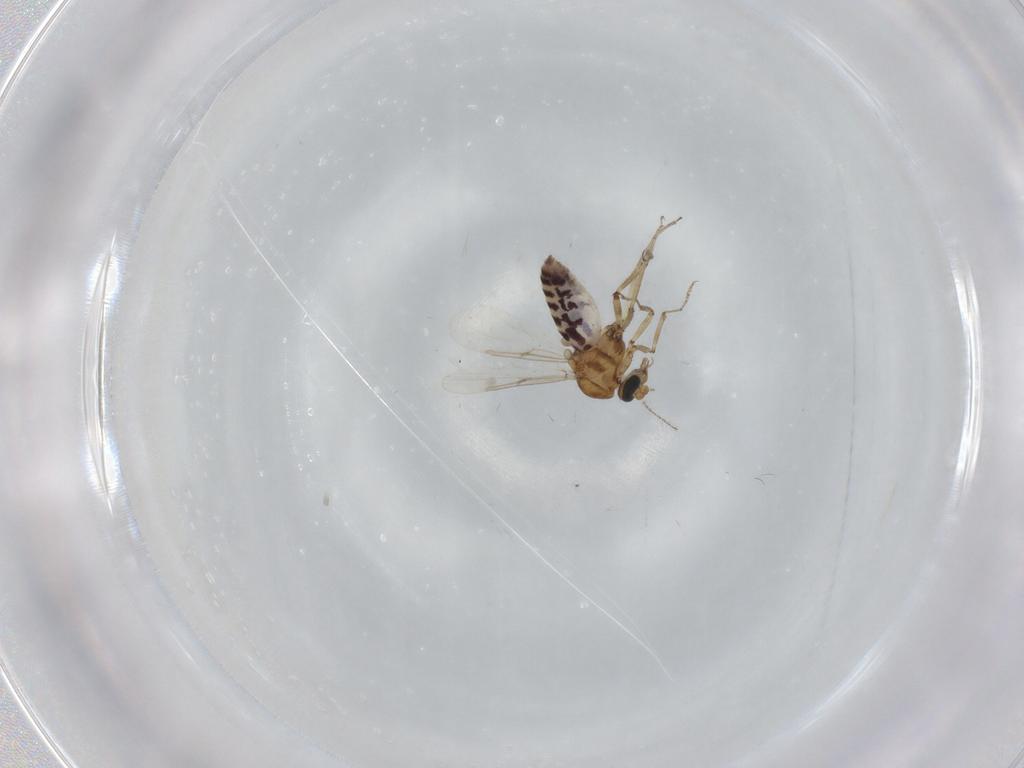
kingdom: Animalia
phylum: Arthropoda
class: Insecta
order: Diptera
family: Ceratopogonidae
